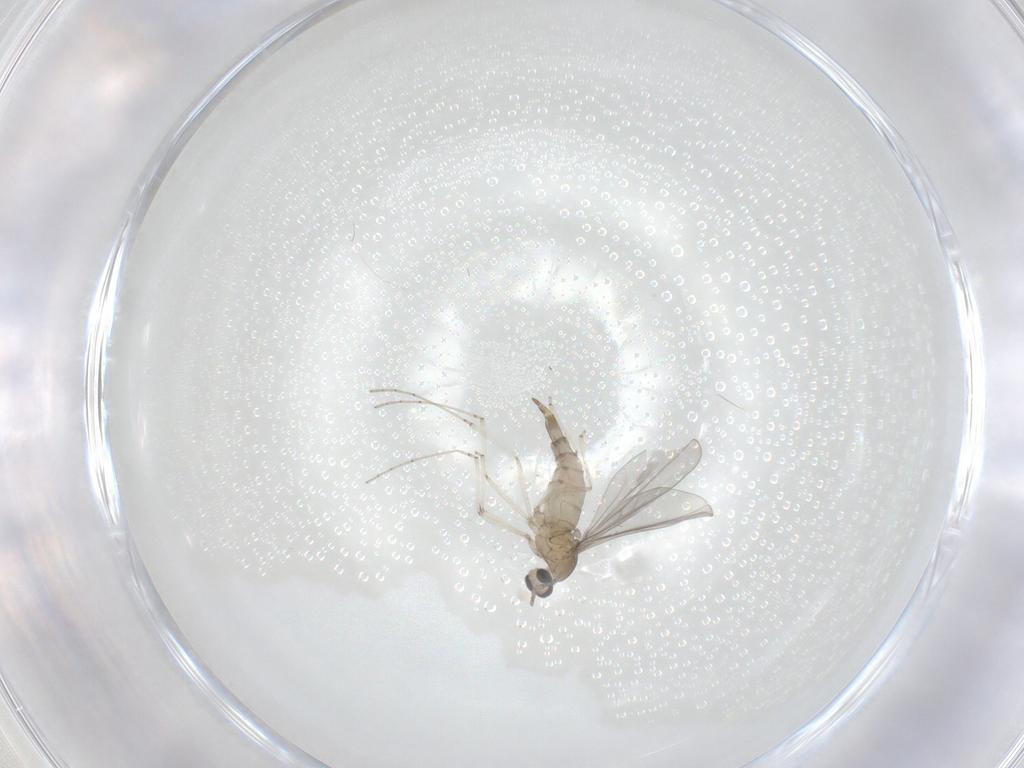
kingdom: Animalia
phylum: Arthropoda
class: Insecta
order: Diptera
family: Cecidomyiidae
